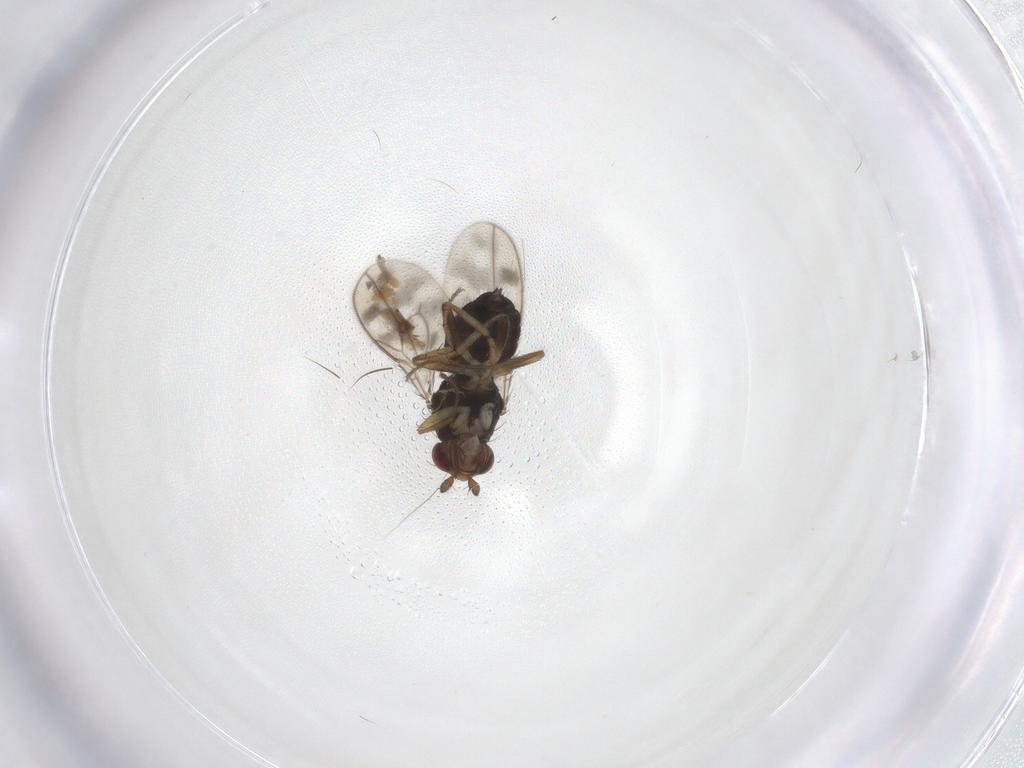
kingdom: Animalia
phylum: Arthropoda
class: Insecta
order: Diptera
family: Sphaeroceridae
